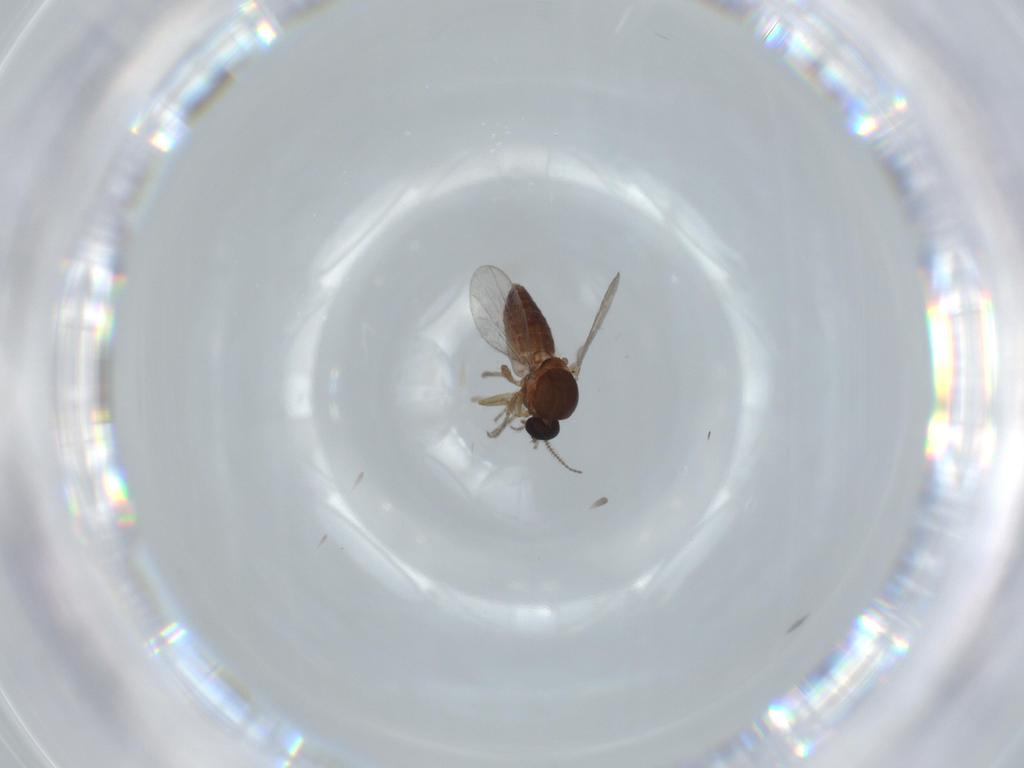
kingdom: Animalia
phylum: Arthropoda
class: Insecta
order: Diptera
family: Ceratopogonidae
